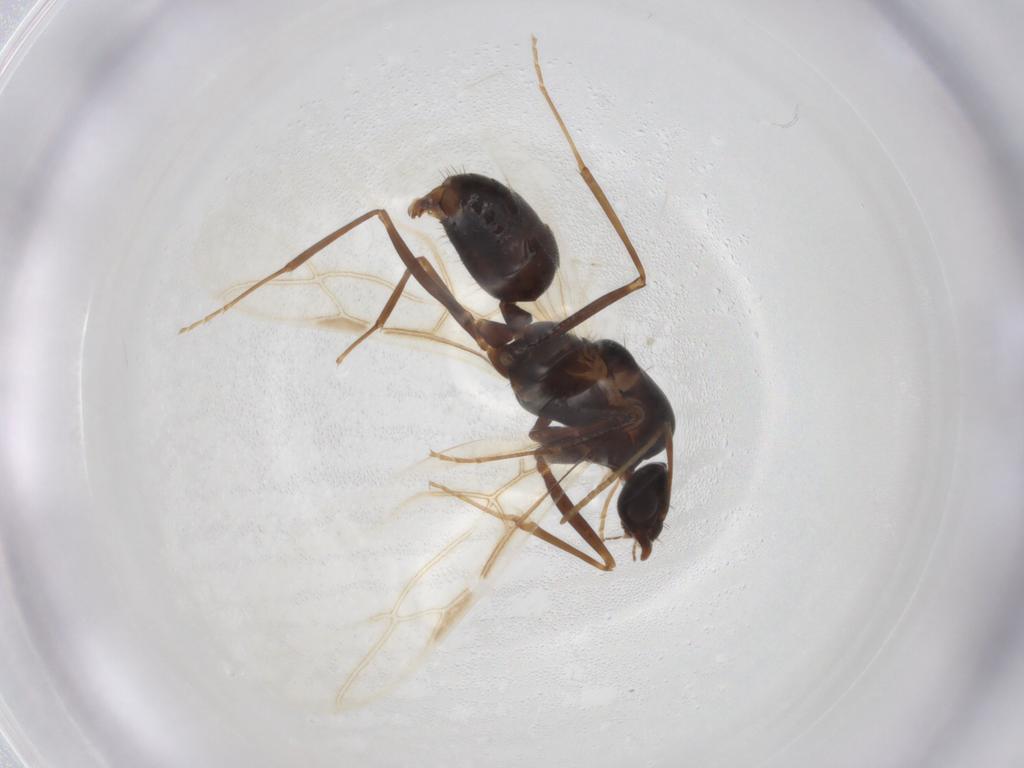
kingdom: Animalia
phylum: Arthropoda
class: Insecta
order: Hymenoptera
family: Formicidae
